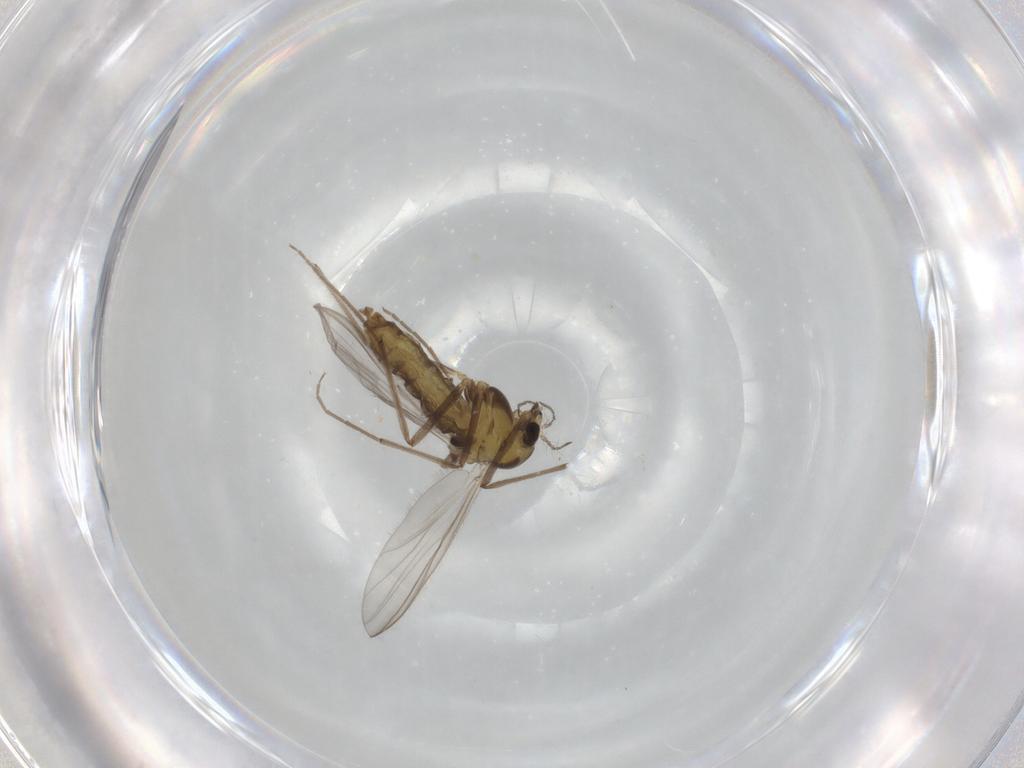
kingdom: Animalia
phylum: Arthropoda
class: Insecta
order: Diptera
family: Chironomidae
